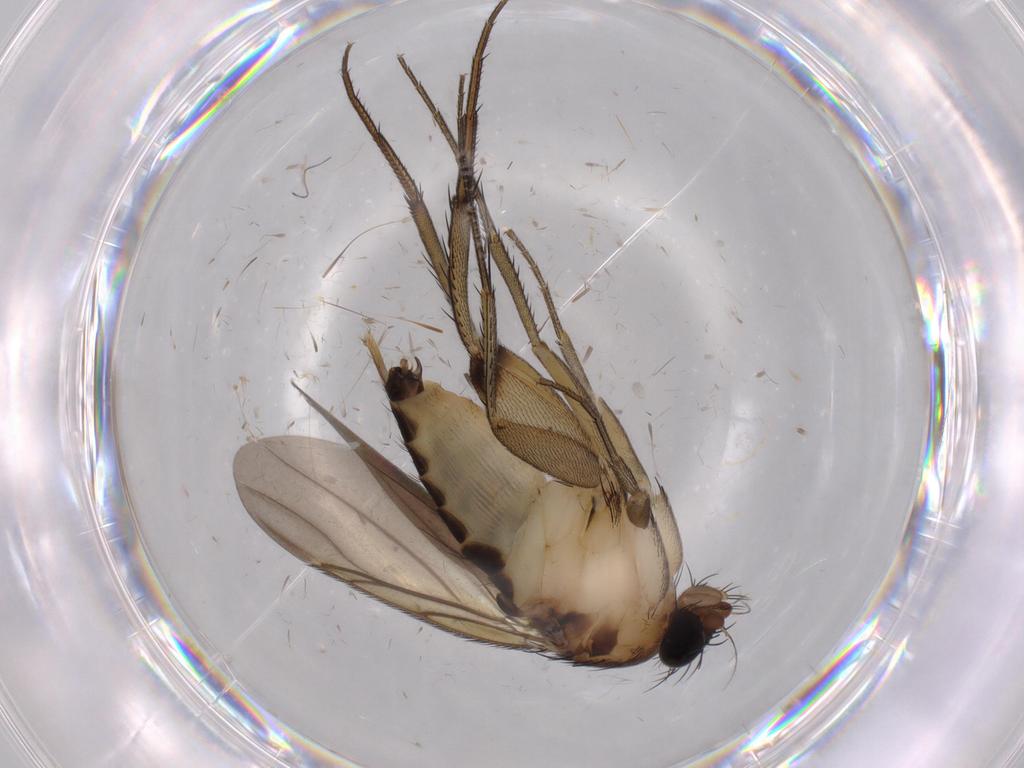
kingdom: Animalia
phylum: Arthropoda
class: Insecta
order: Diptera
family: Phoridae
